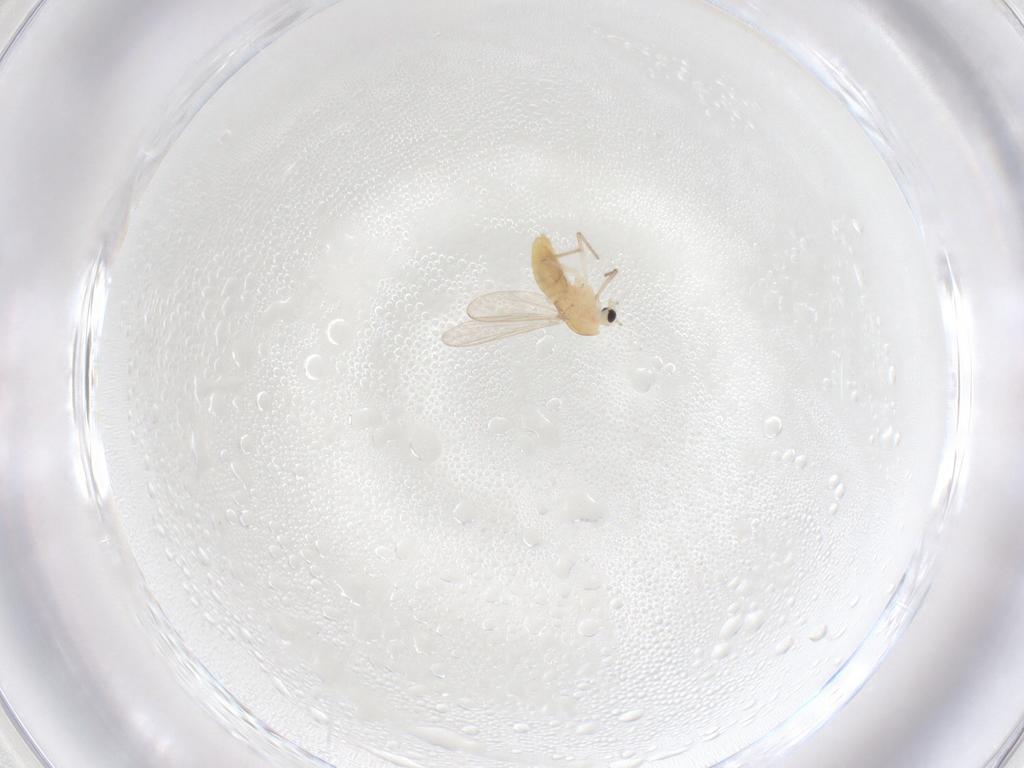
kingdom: Animalia
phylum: Arthropoda
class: Insecta
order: Diptera
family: Chironomidae
